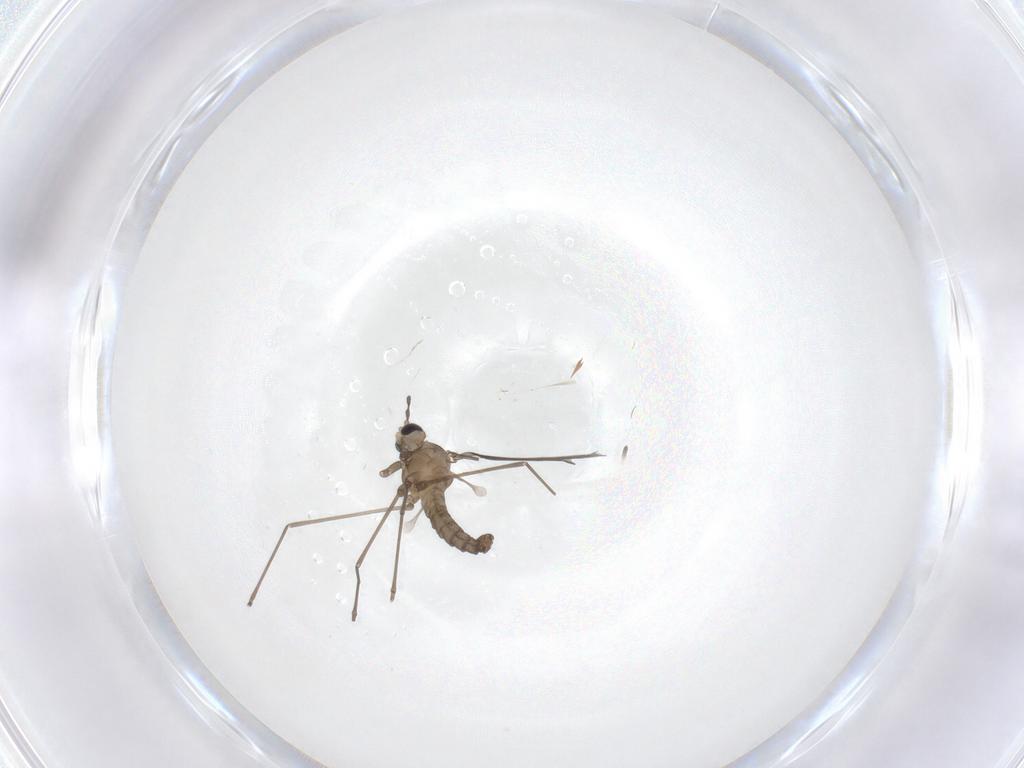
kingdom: Animalia
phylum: Arthropoda
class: Insecta
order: Diptera
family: Cecidomyiidae
